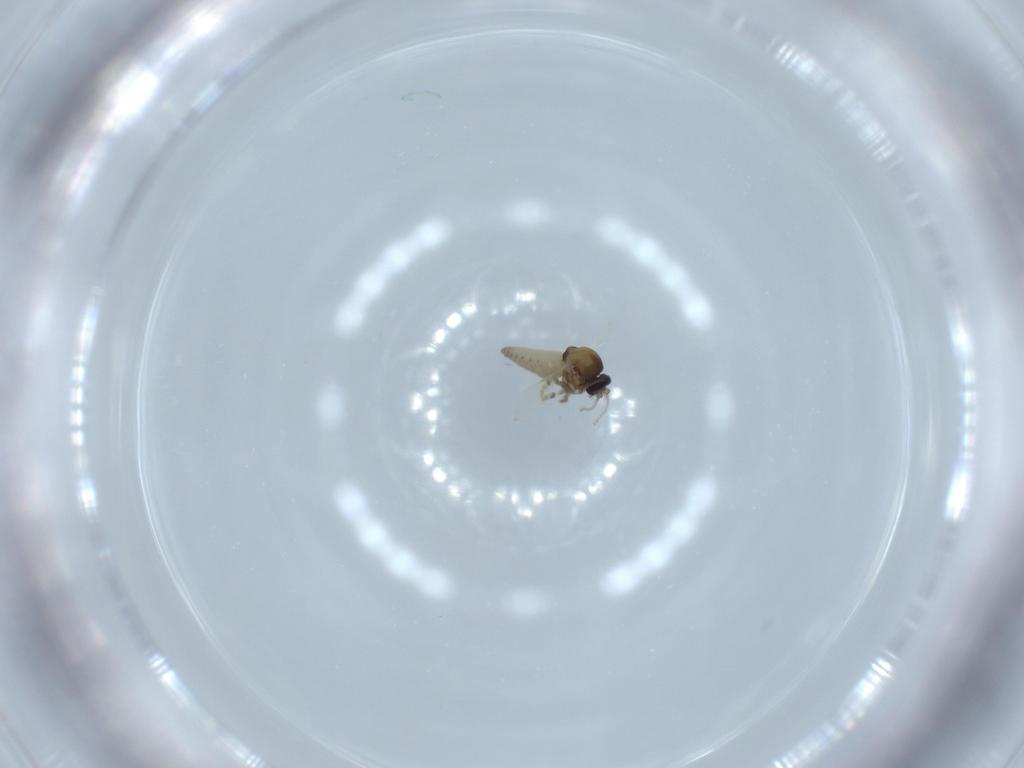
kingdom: Animalia
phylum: Arthropoda
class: Insecta
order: Diptera
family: Ceratopogonidae
